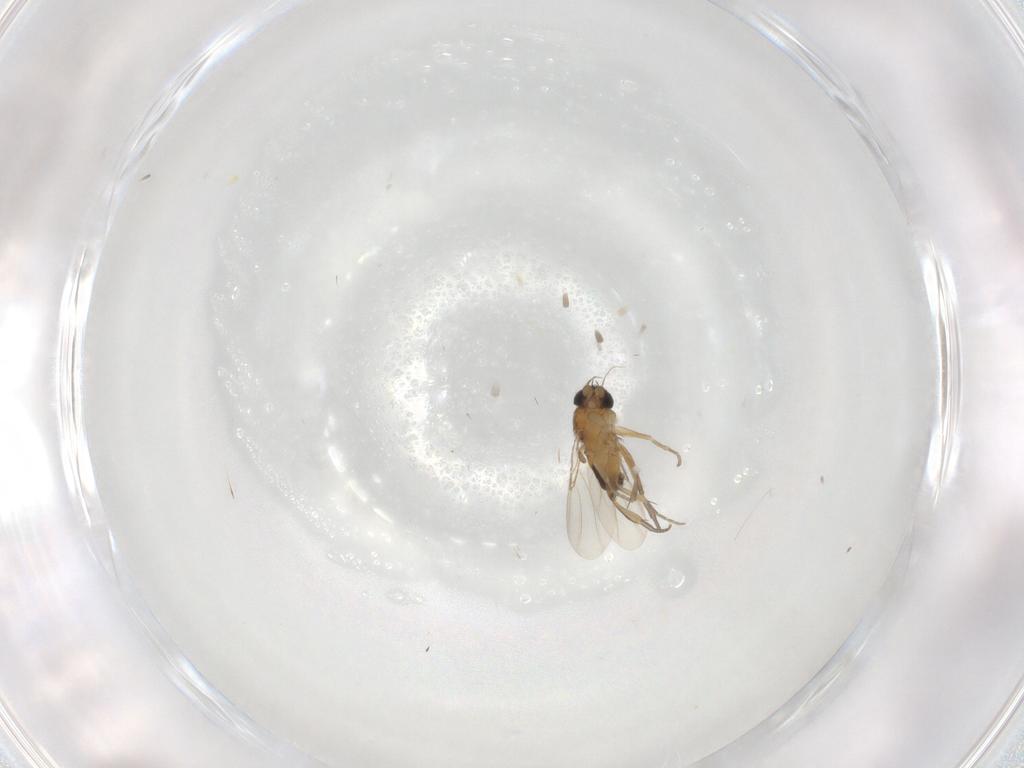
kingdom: Animalia
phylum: Arthropoda
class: Insecta
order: Diptera
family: Phoridae
